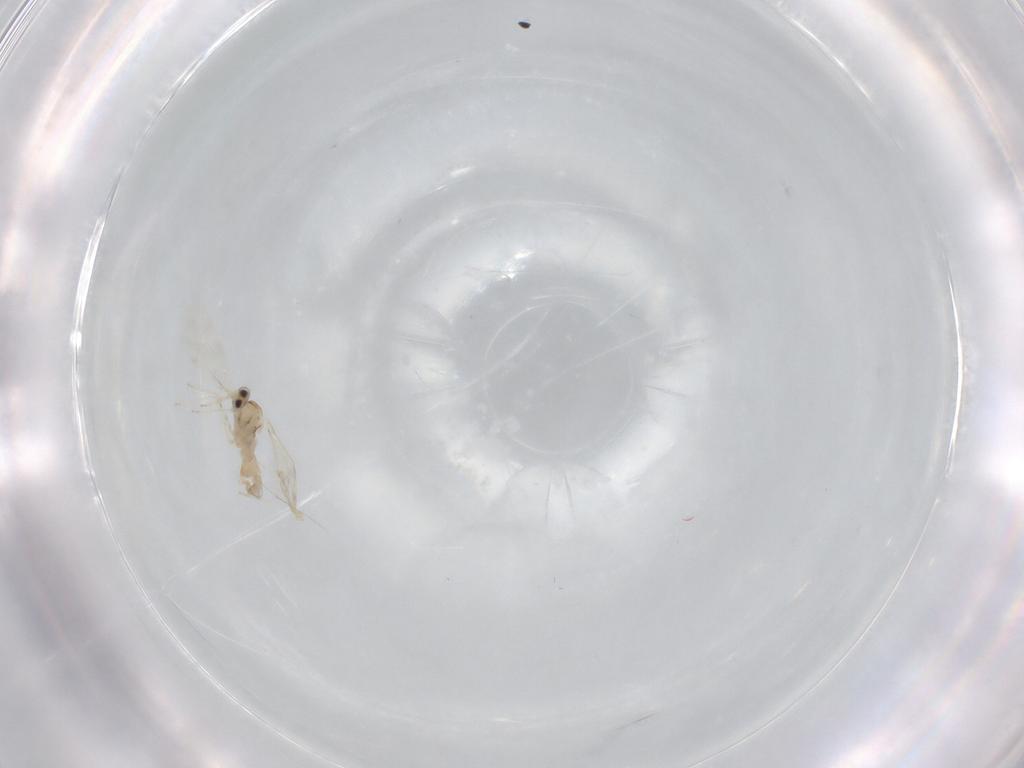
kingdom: Animalia
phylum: Arthropoda
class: Insecta
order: Diptera
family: Cecidomyiidae
